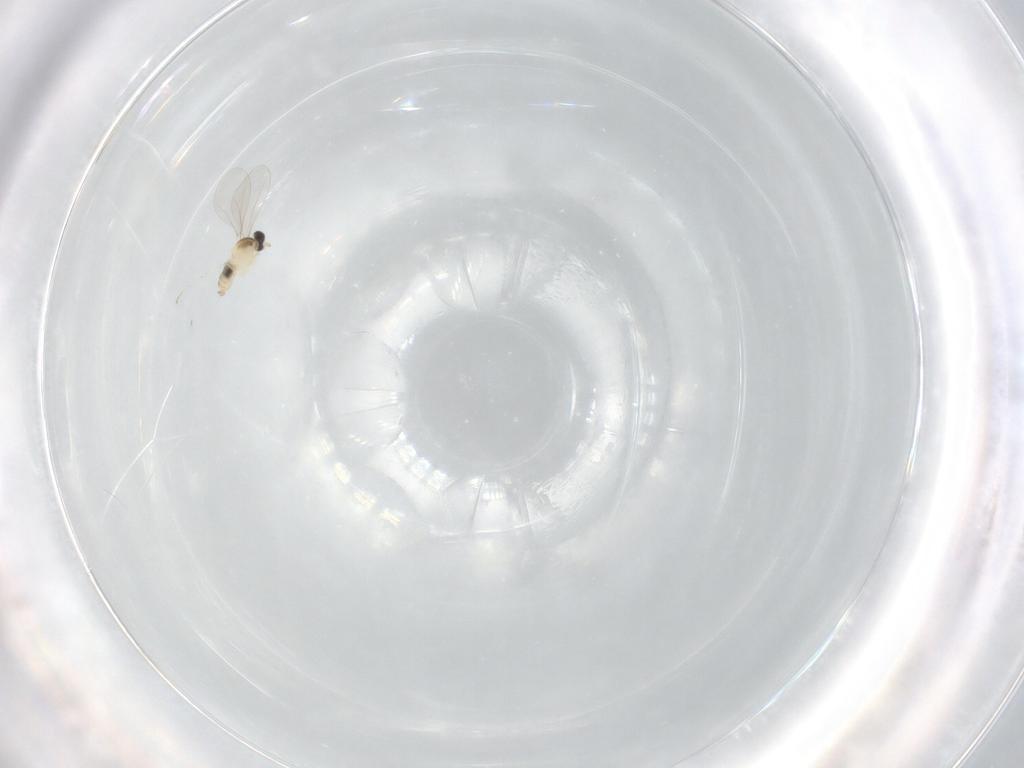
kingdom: Animalia
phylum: Arthropoda
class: Insecta
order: Diptera
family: Cecidomyiidae
